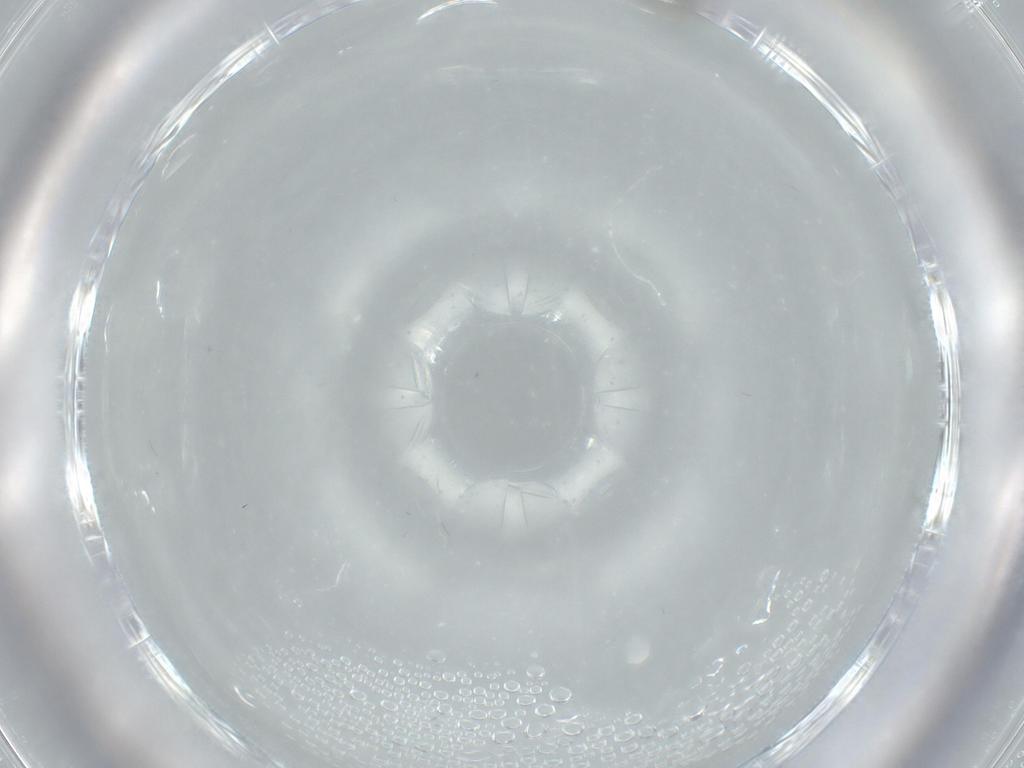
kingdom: Animalia
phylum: Arthropoda
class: Insecta
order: Hymenoptera
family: Aphelinidae
